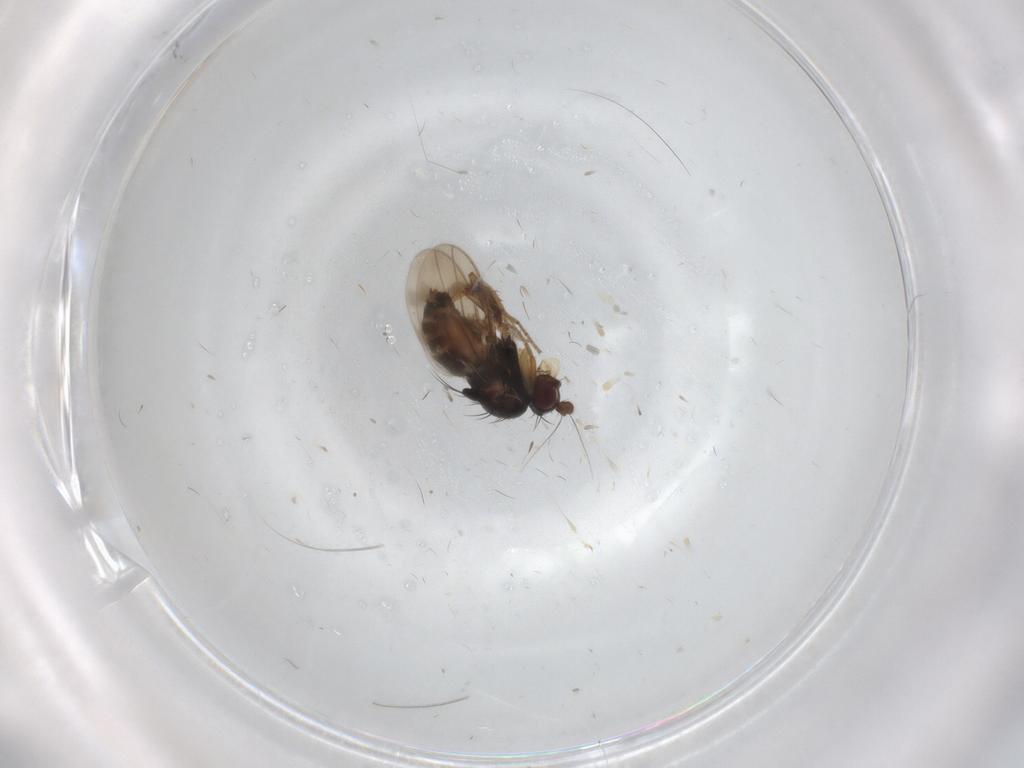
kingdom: Animalia
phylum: Arthropoda
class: Insecta
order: Diptera
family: Sphaeroceridae
